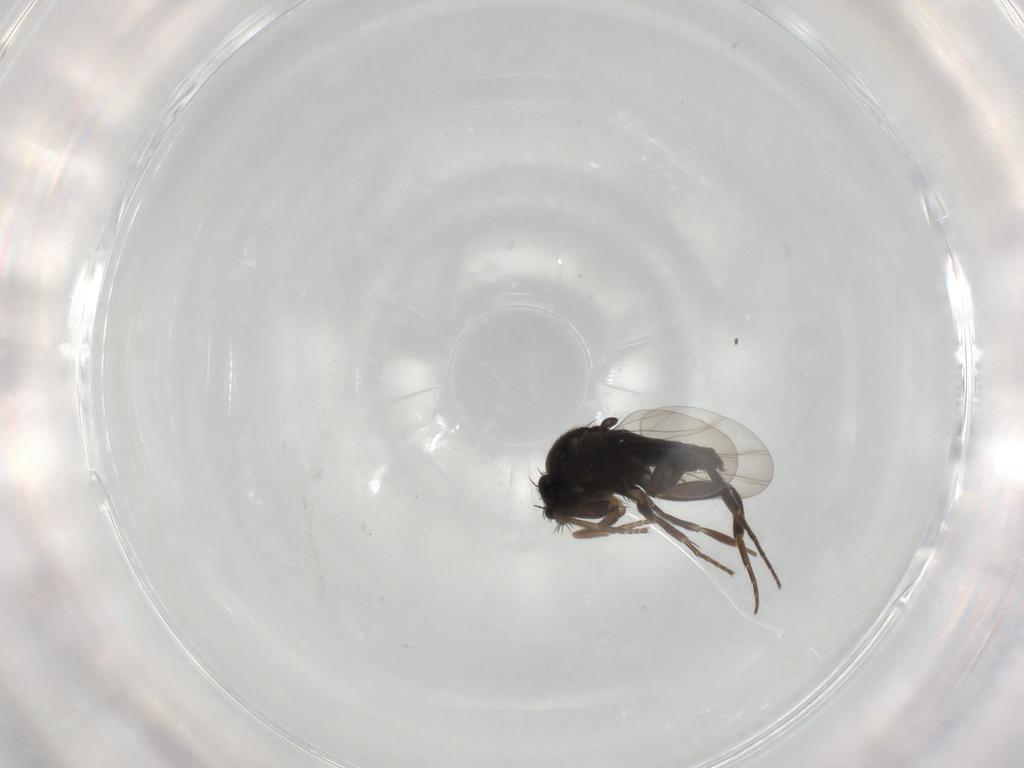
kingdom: Animalia
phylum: Arthropoda
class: Insecta
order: Diptera
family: Phoridae
